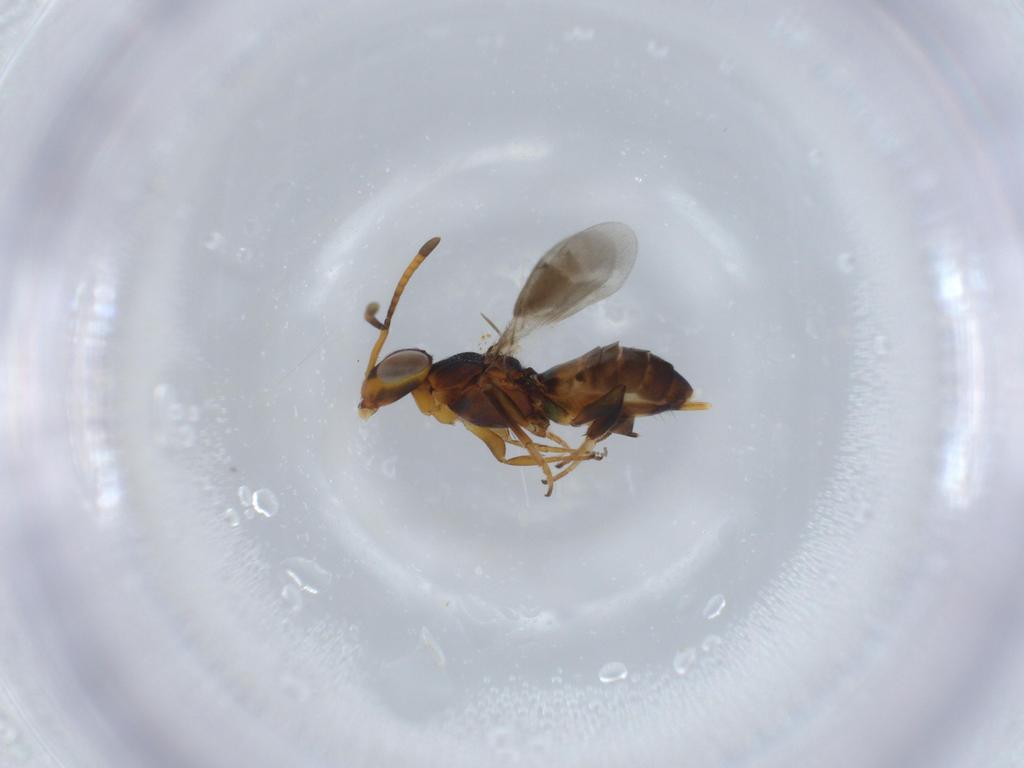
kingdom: Animalia
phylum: Arthropoda
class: Insecta
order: Hymenoptera
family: Eupelmidae
